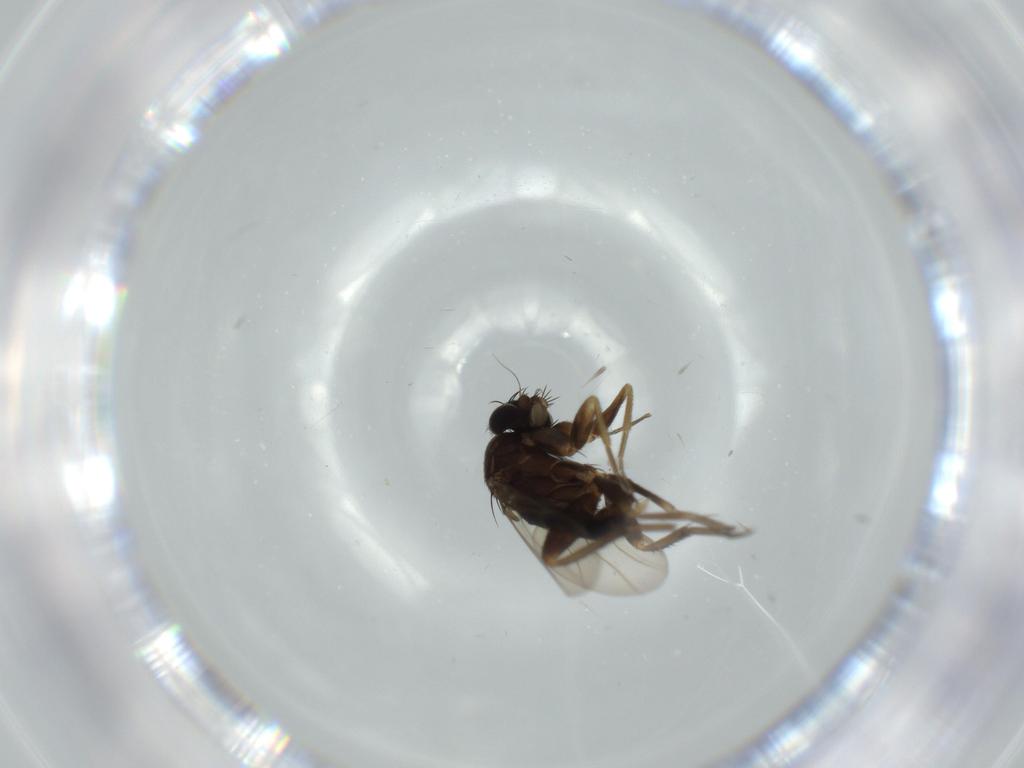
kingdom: Animalia
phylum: Arthropoda
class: Insecta
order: Diptera
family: Phoridae
